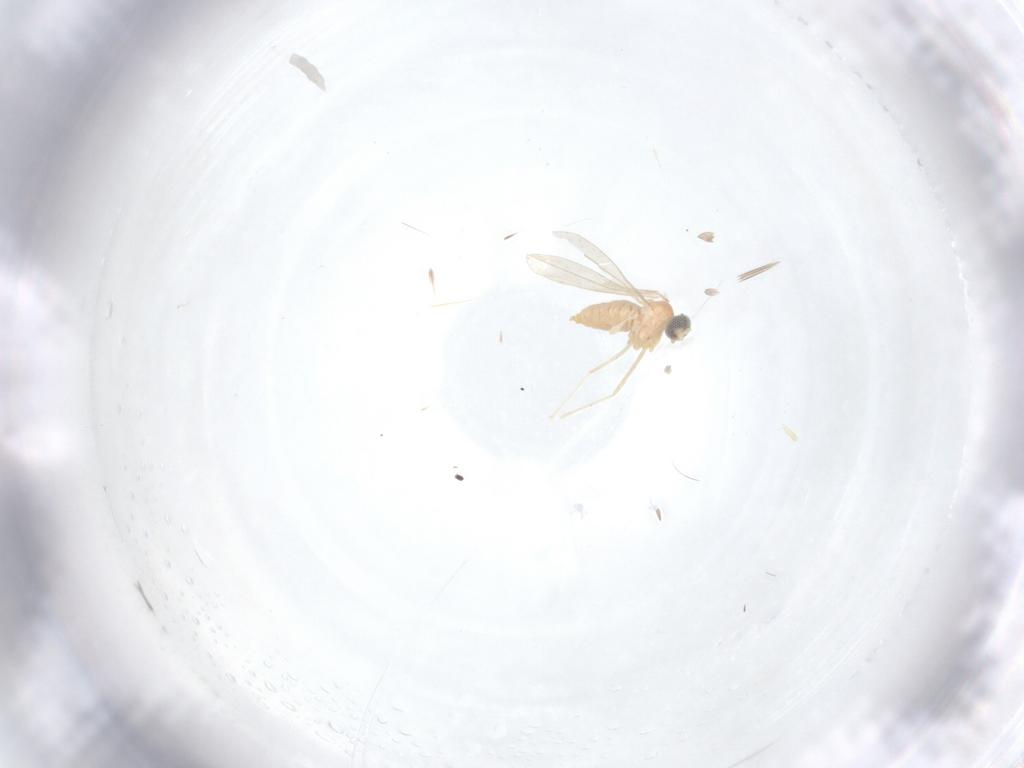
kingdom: Animalia
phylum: Arthropoda
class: Insecta
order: Diptera
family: Cecidomyiidae
